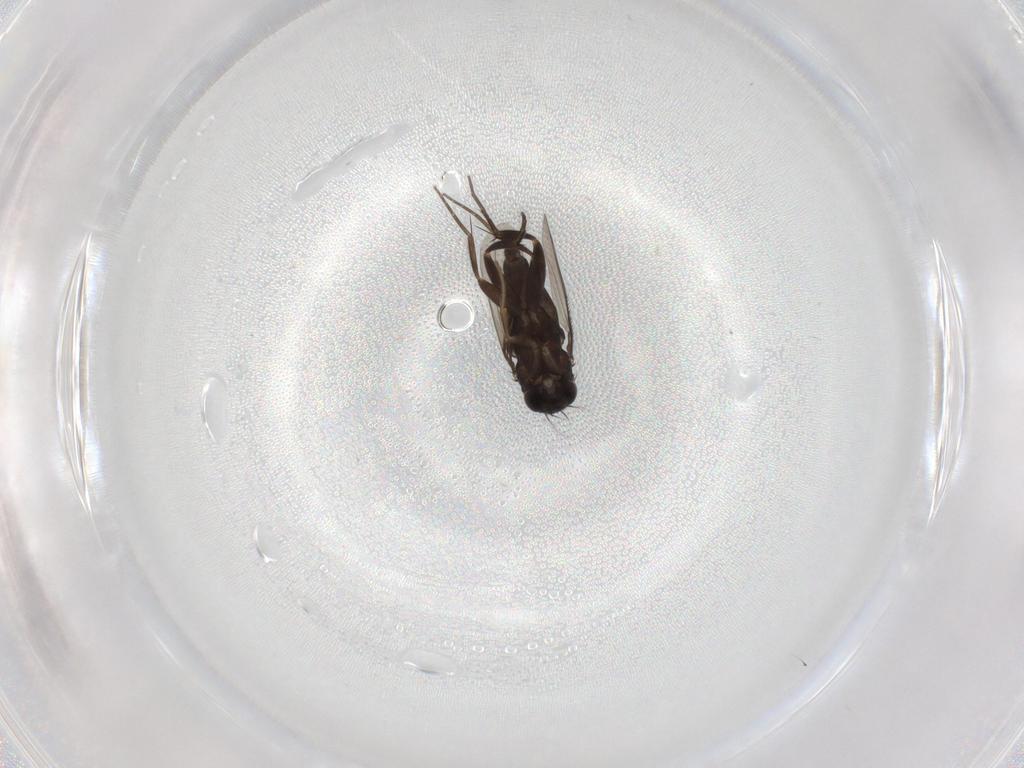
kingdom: Animalia
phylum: Arthropoda
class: Insecta
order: Diptera
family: Phoridae
